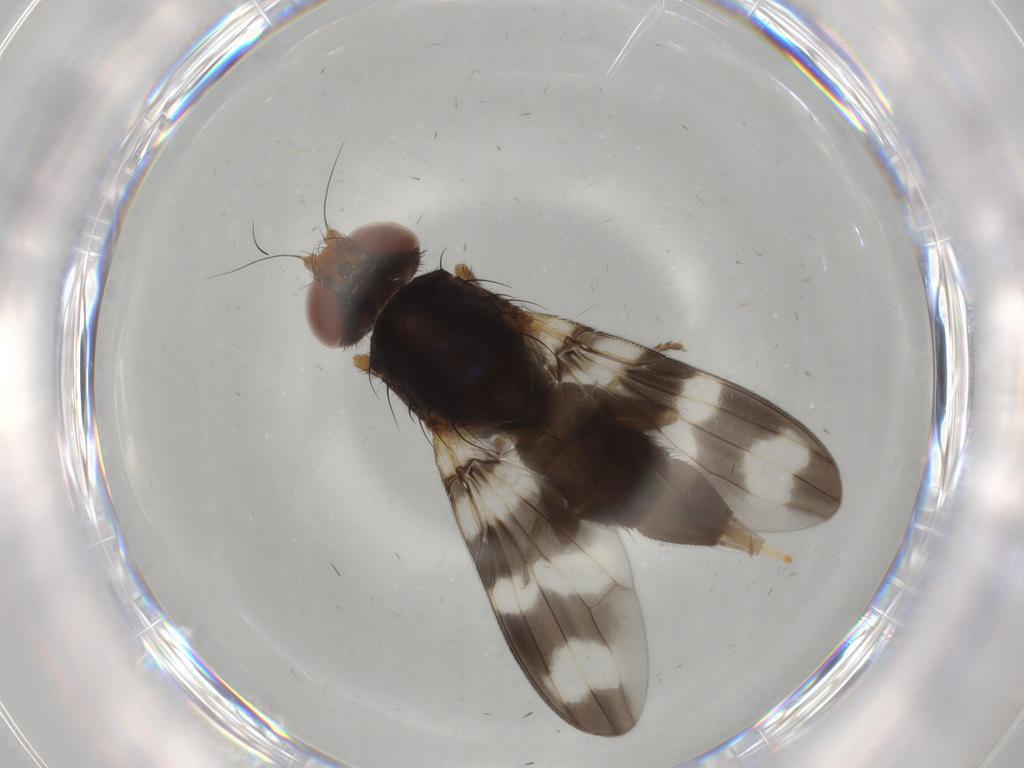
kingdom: Animalia
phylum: Arthropoda
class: Insecta
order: Diptera
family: Ulidiidae
